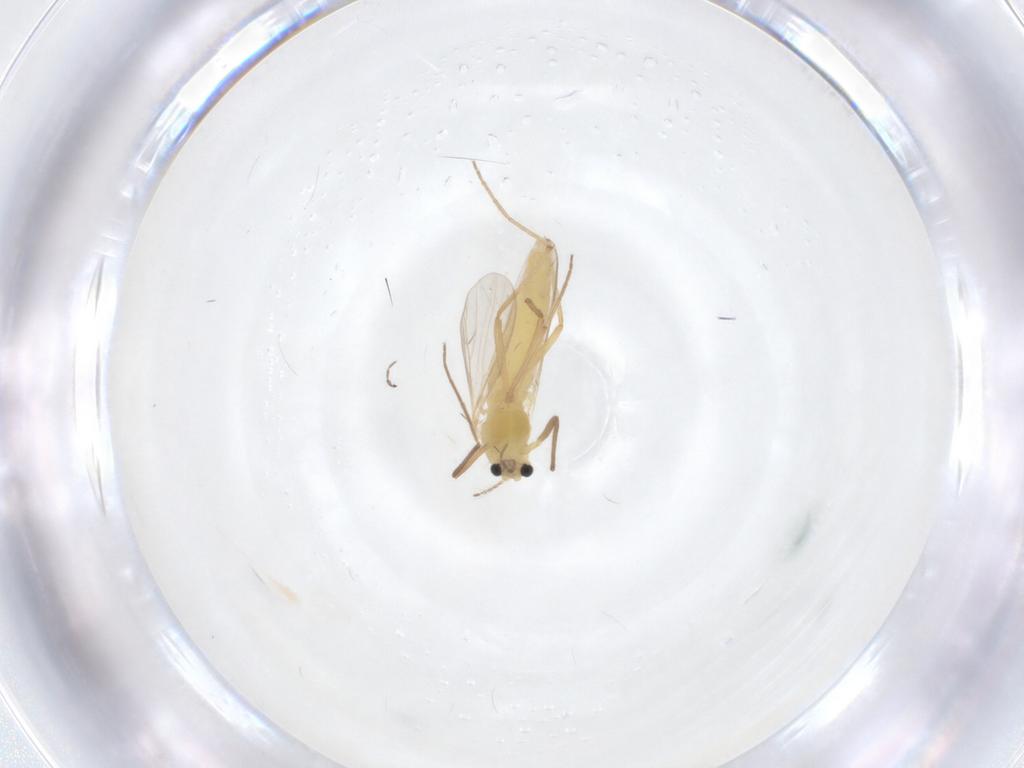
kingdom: Animalia
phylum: Arthropoda
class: Insecta
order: Diptera
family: Chironomidae
